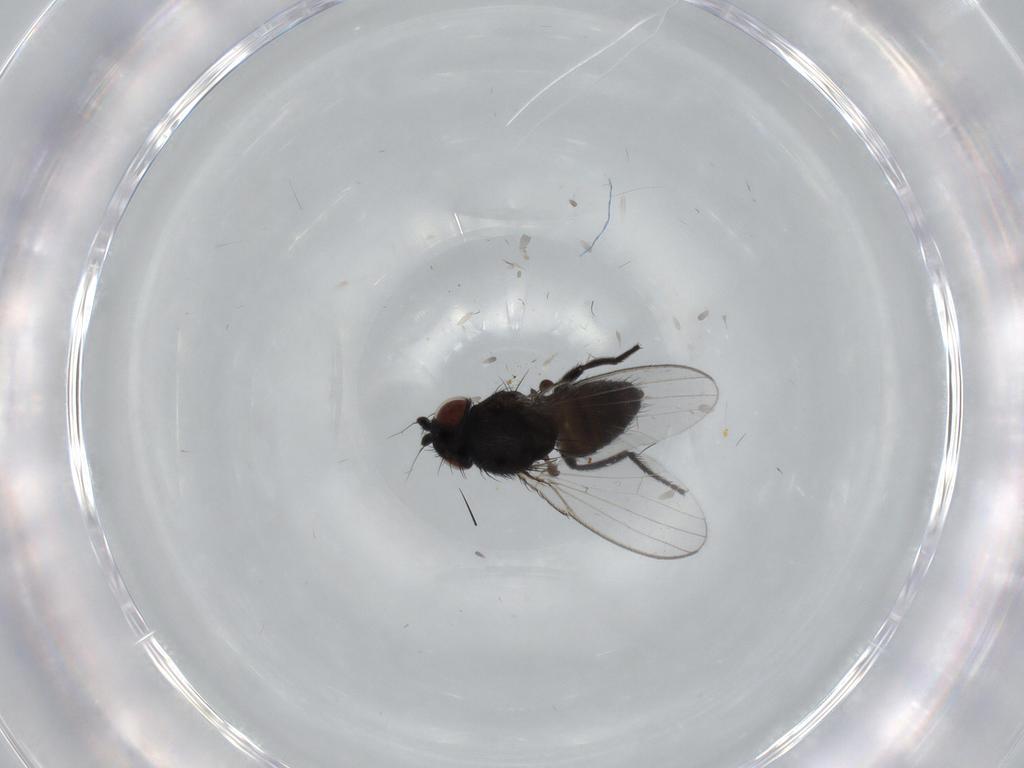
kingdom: Animalia
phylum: Arthropoda
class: Insecta
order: Diptera
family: Milichiidae
